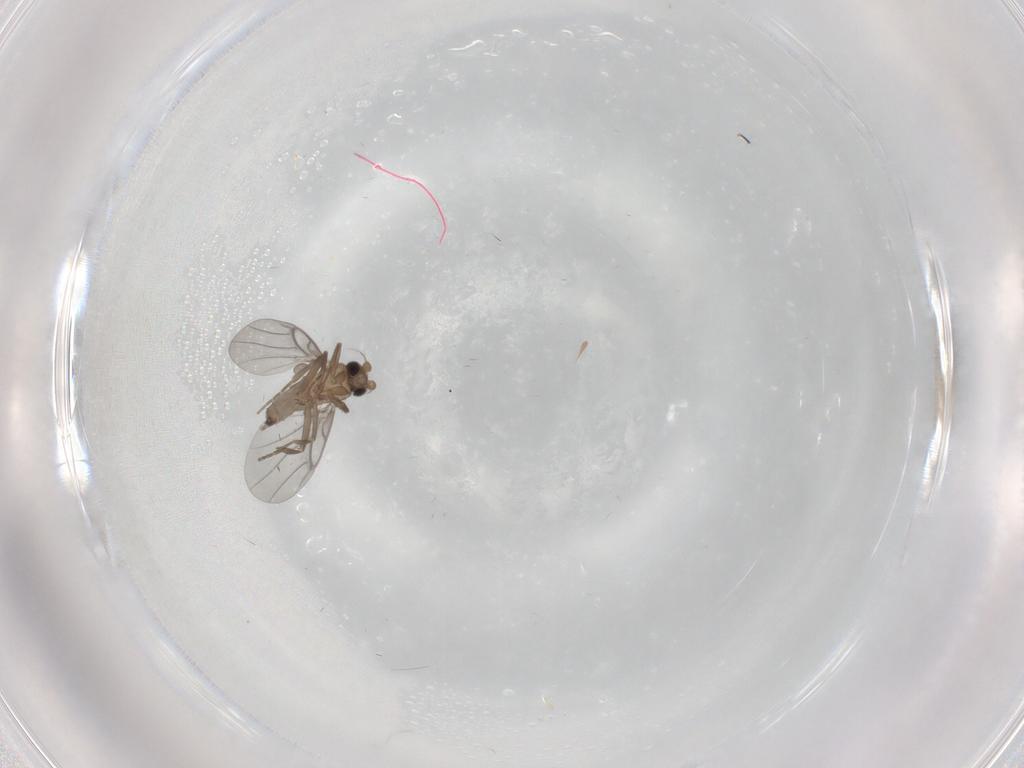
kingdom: Animalia
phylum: Arthropoda
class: Insecta
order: Diptera
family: Phoridae
